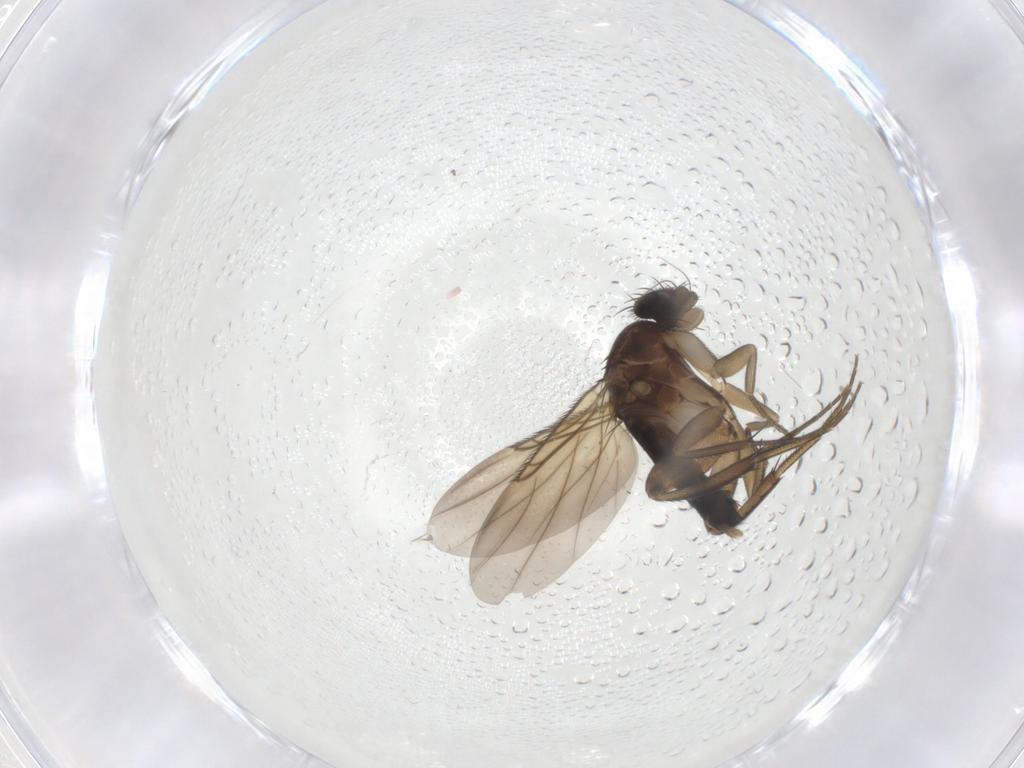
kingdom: Animalia
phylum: Arthropoda
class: Insecta
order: Diptera
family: Phoridae
